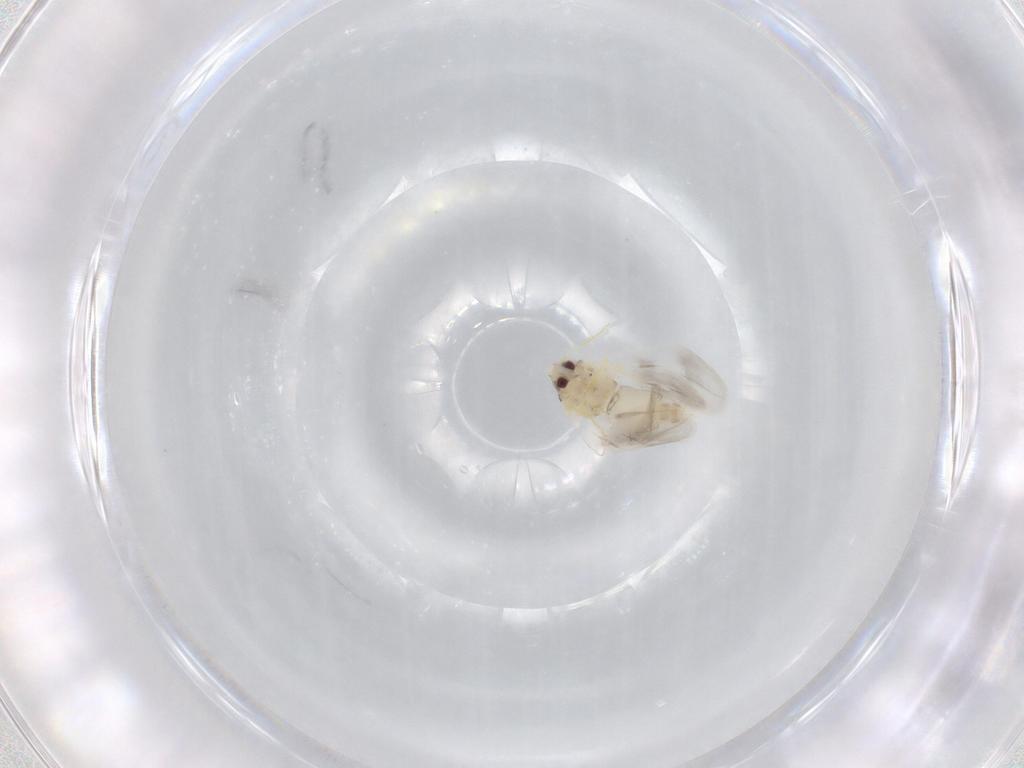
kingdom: Animalia
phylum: Arthropoda
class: Insecta
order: Hemiptera
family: Aleyrodidae
